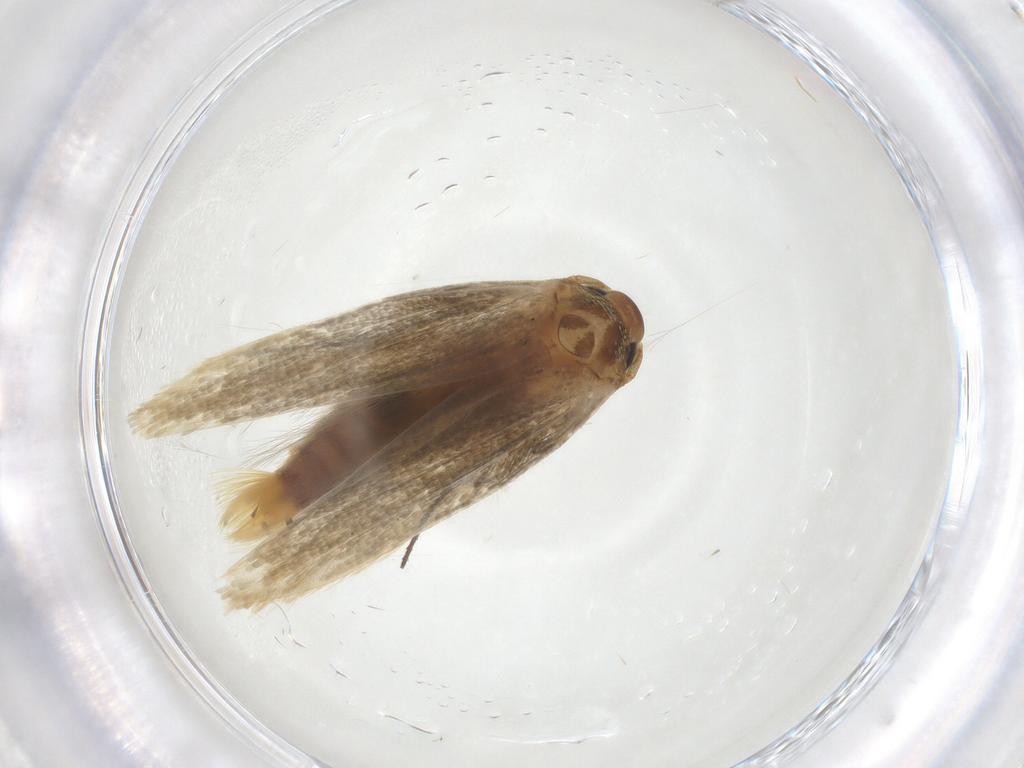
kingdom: Animalia
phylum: Arthropoda
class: Insecta
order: Lepidoptera
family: Stathmopodidae
